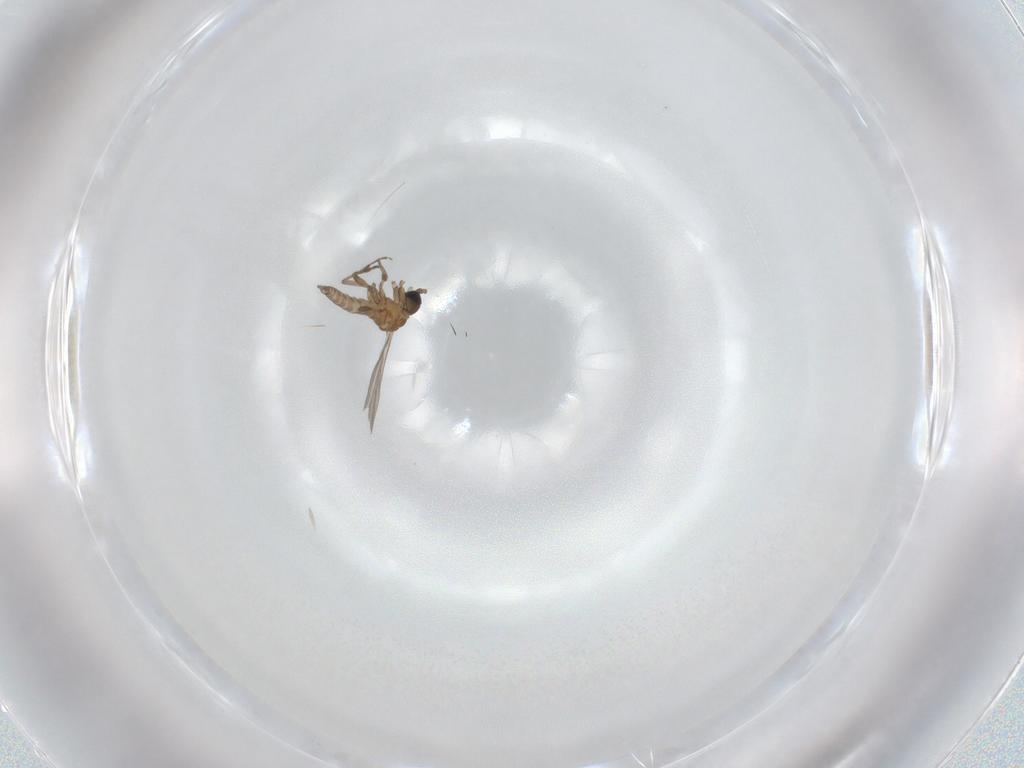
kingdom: Animalia
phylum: Arthropoda
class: Insecta
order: Diptera
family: Sciaridae
